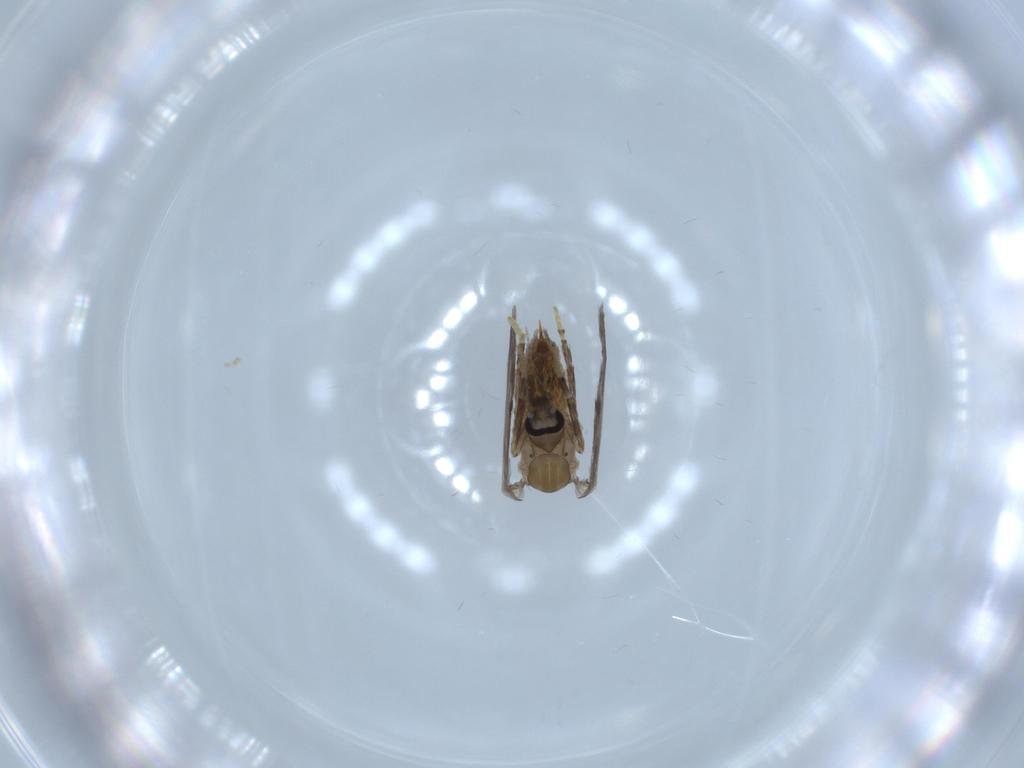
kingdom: Animalia
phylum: Arthropoda
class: Insecta
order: Diptera
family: Psychodidae
